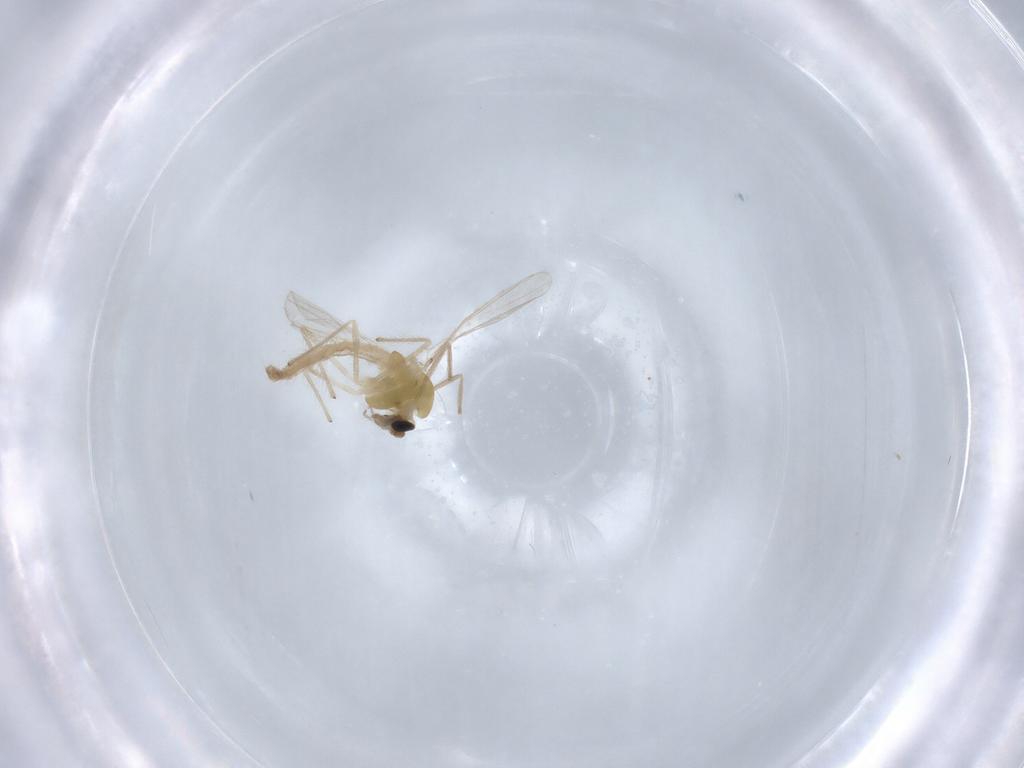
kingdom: Animalia
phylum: Arthropoda
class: Insecta
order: Diptera
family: Chironomidae
